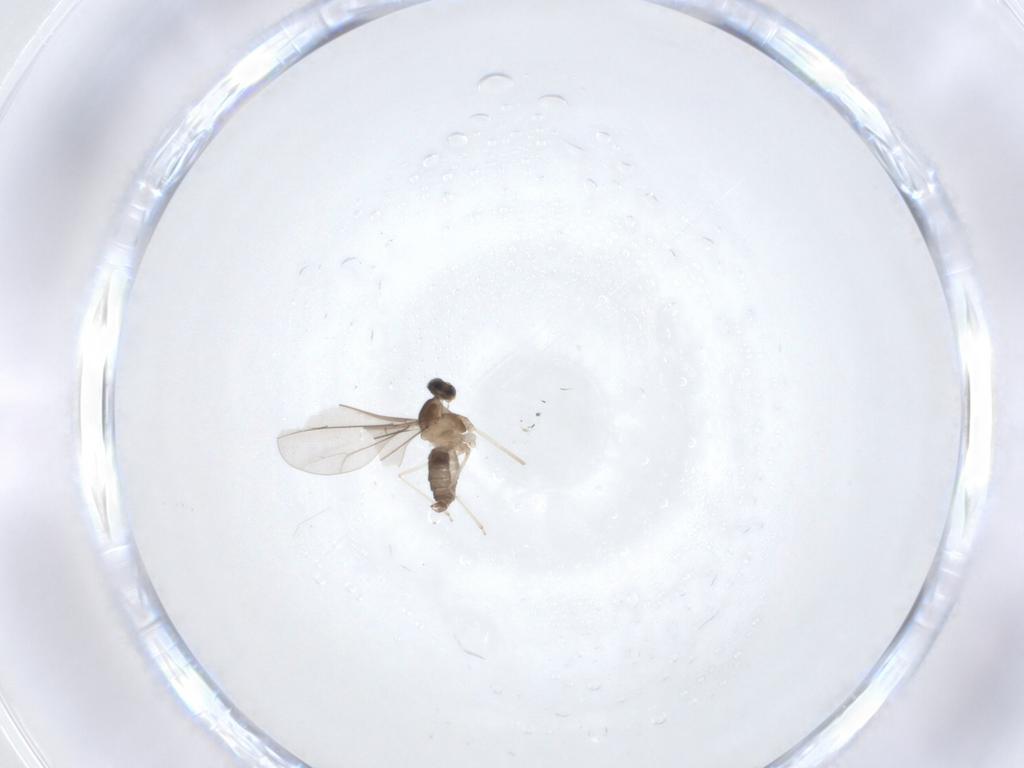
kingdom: Animalia
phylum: Arthropoda
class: Insecta
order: Diptera
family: Cecidomyiidae
